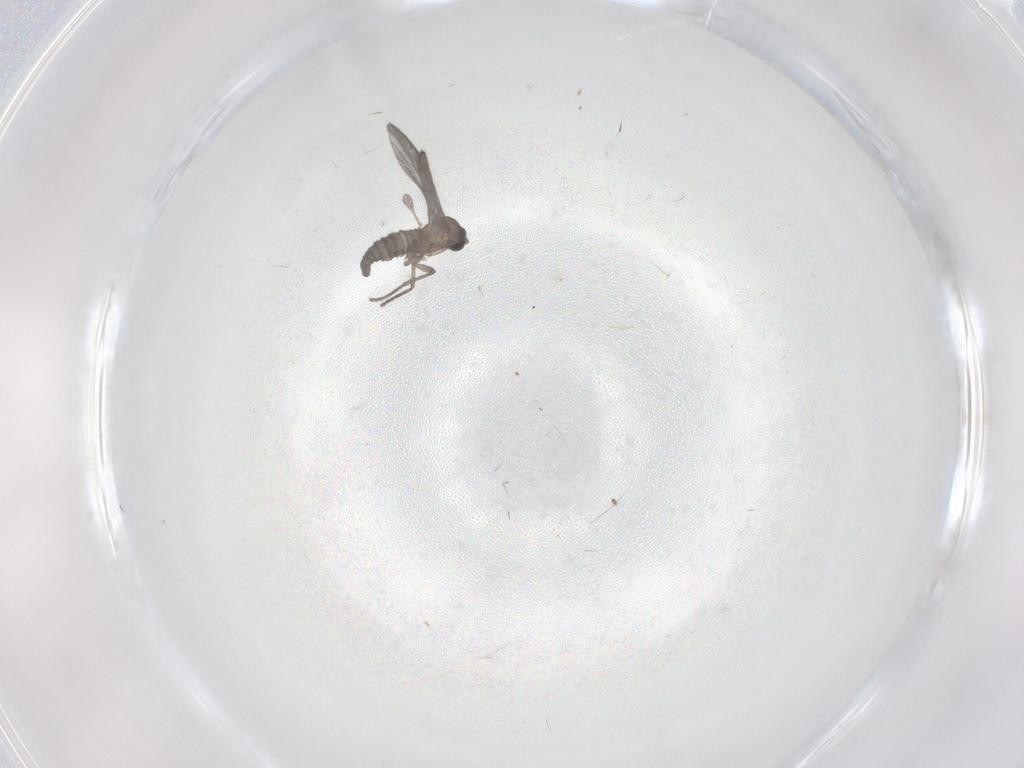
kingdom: Animalia
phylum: Arthropoda
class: Insecta
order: Diptera
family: Sciaridae
